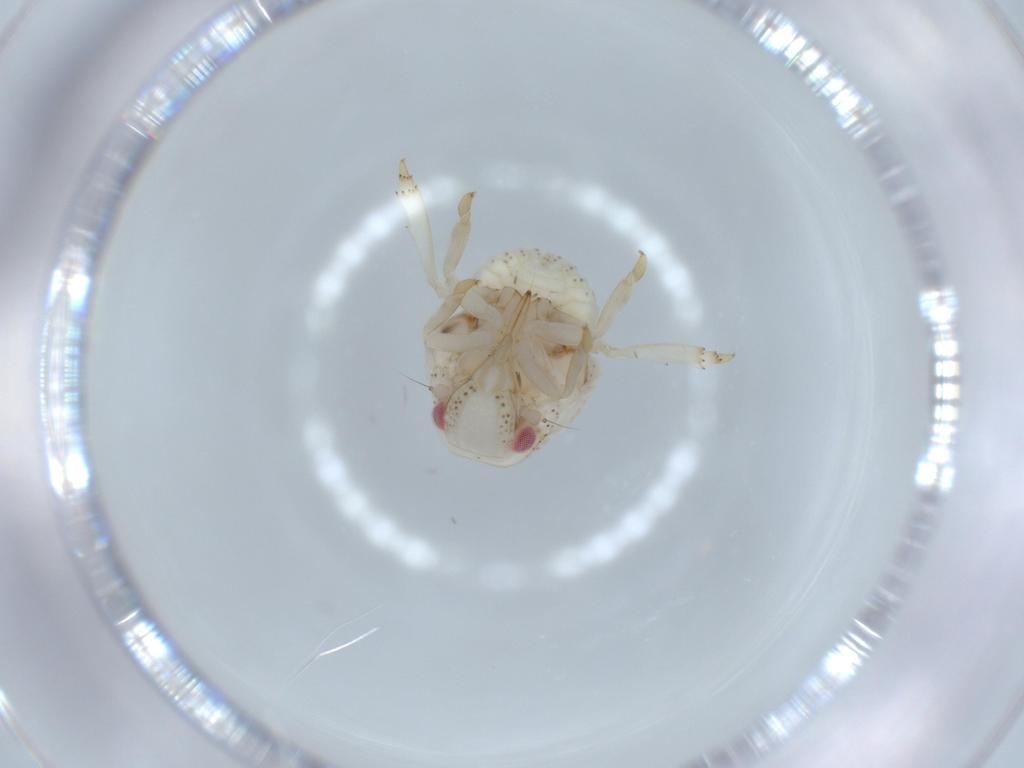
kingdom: Animalia
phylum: Arthropoda
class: Insecta
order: Hemiptera
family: Acanaloniidae
